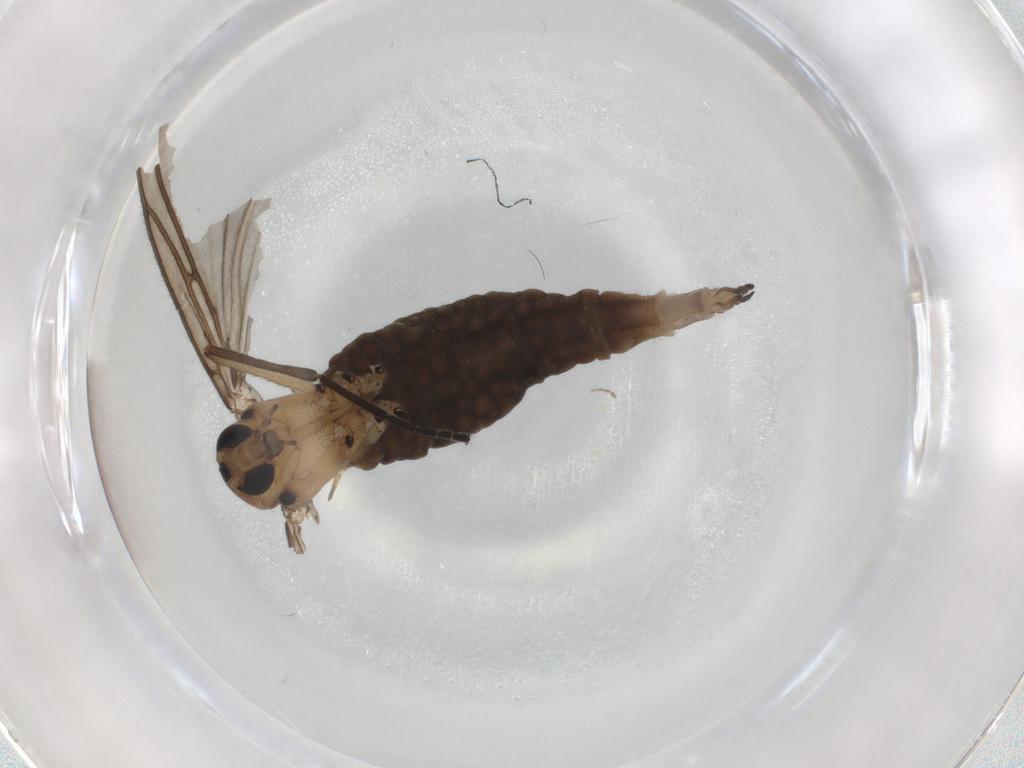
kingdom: Animalia
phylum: Arthropoda
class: Insecta
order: Diptera
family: Sciaridae
